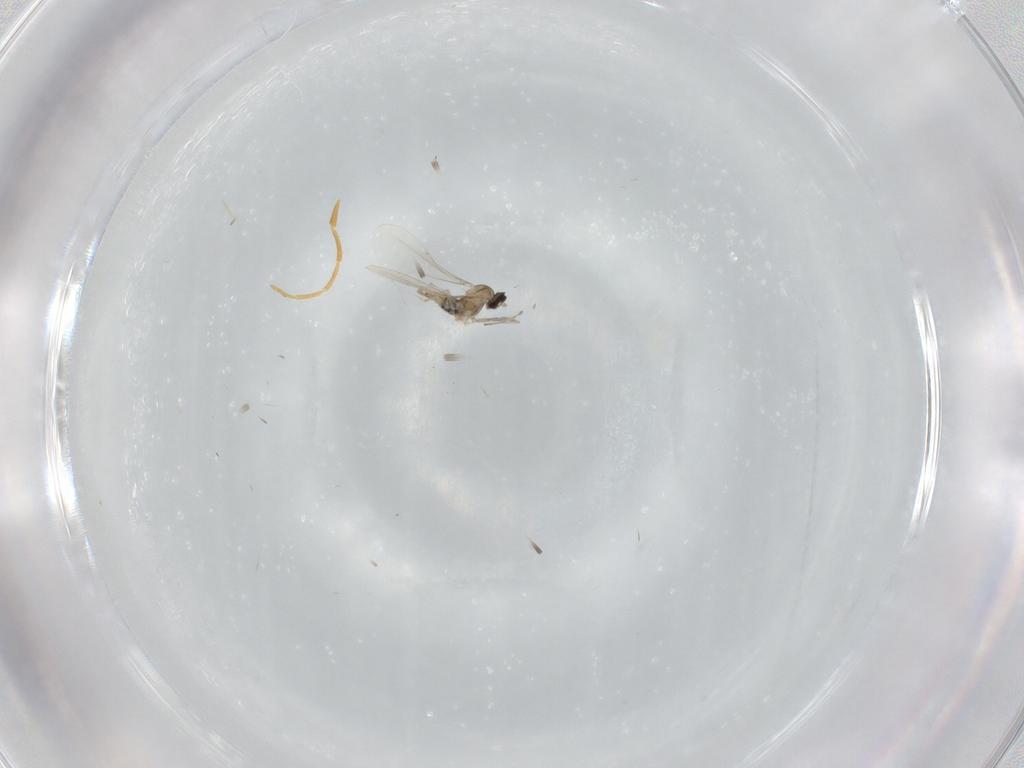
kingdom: Animalia
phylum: Arthropoda
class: Insecta
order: Diptera
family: Cecidomyiidae
